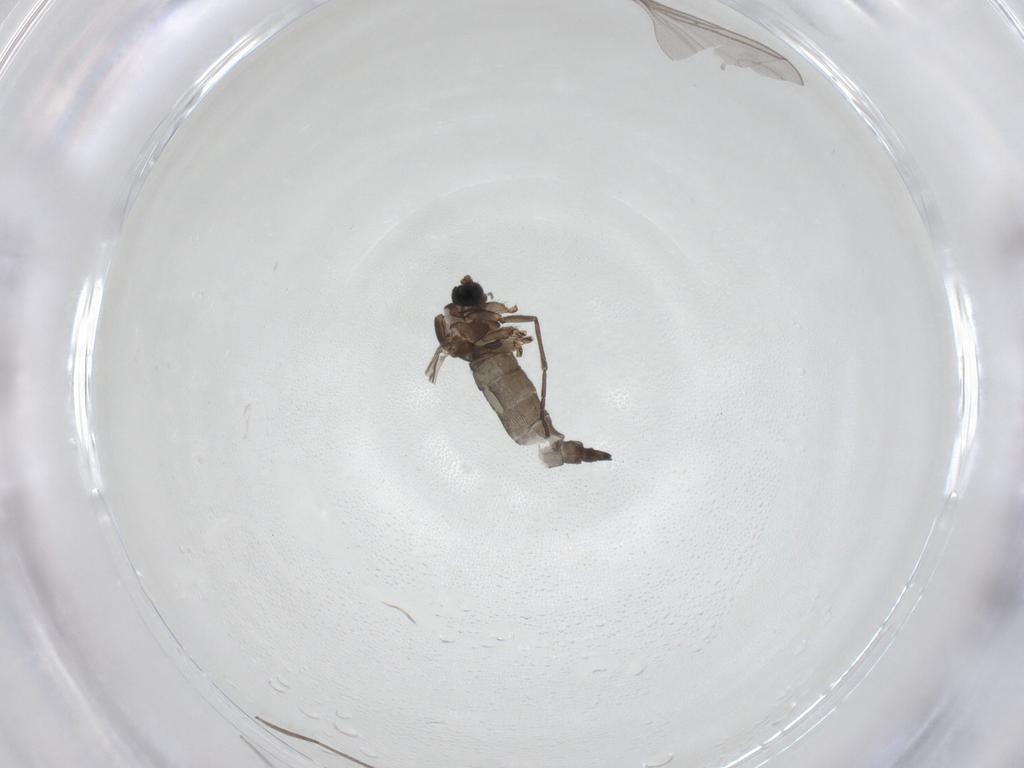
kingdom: Animalia
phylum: Arthropoda
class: Insecta
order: Diptera
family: Sciaridae
